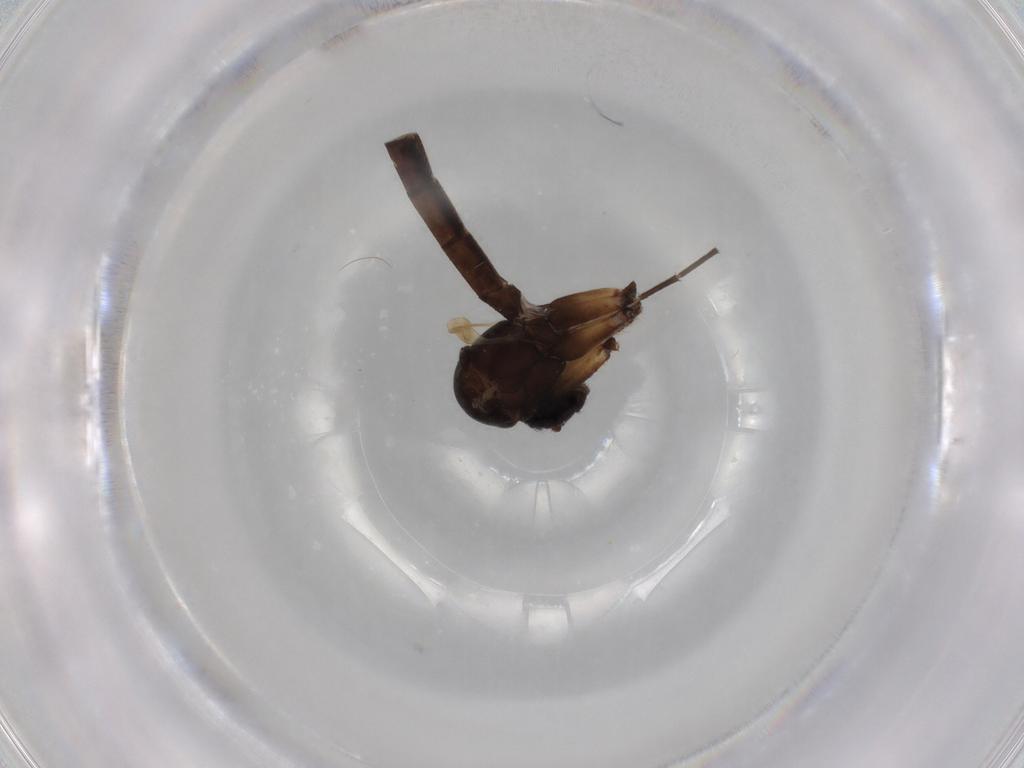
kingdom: Animalia
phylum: Arthropoda
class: Insecta
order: Diptera
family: Mycetophilidae
